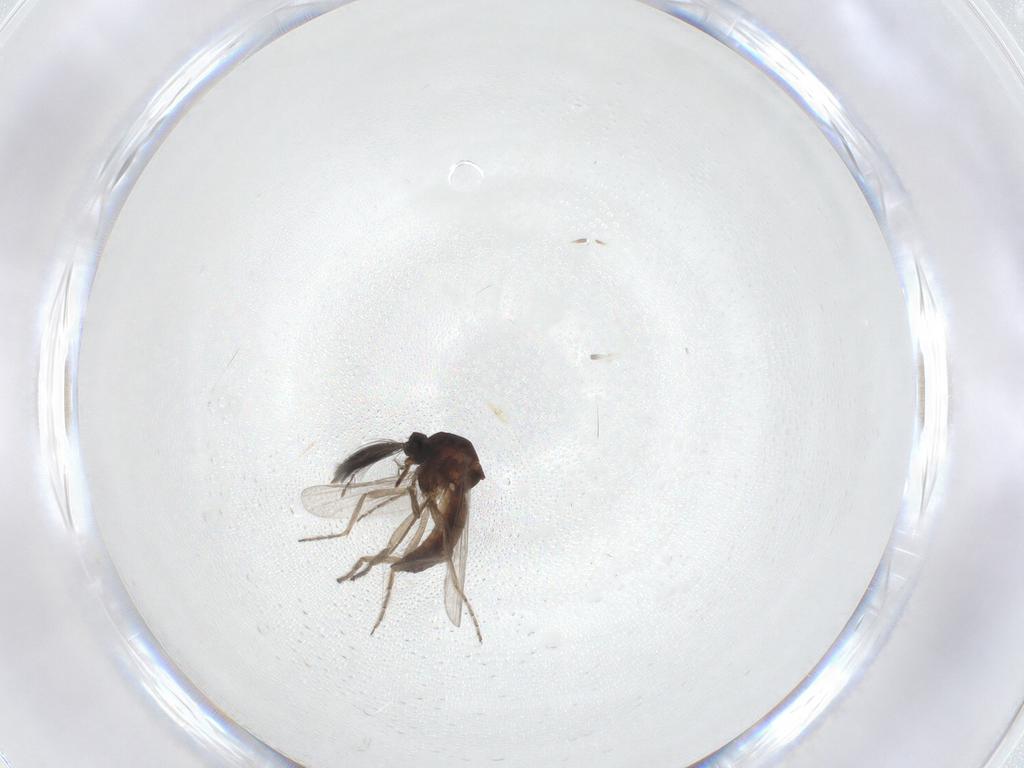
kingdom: Animalia
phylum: Arthropoda
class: Insecta
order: Diptera
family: Ceratopogonidae
